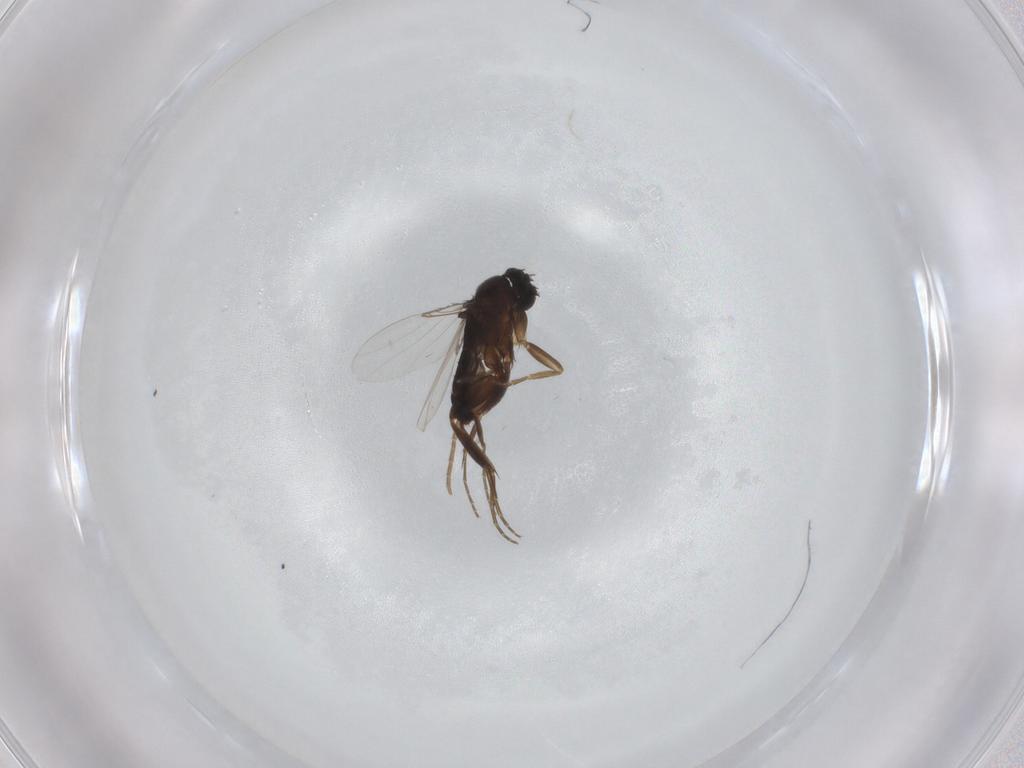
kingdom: Animalia
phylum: Arthropoda
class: Insecta
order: Diptera
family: Phoridae
